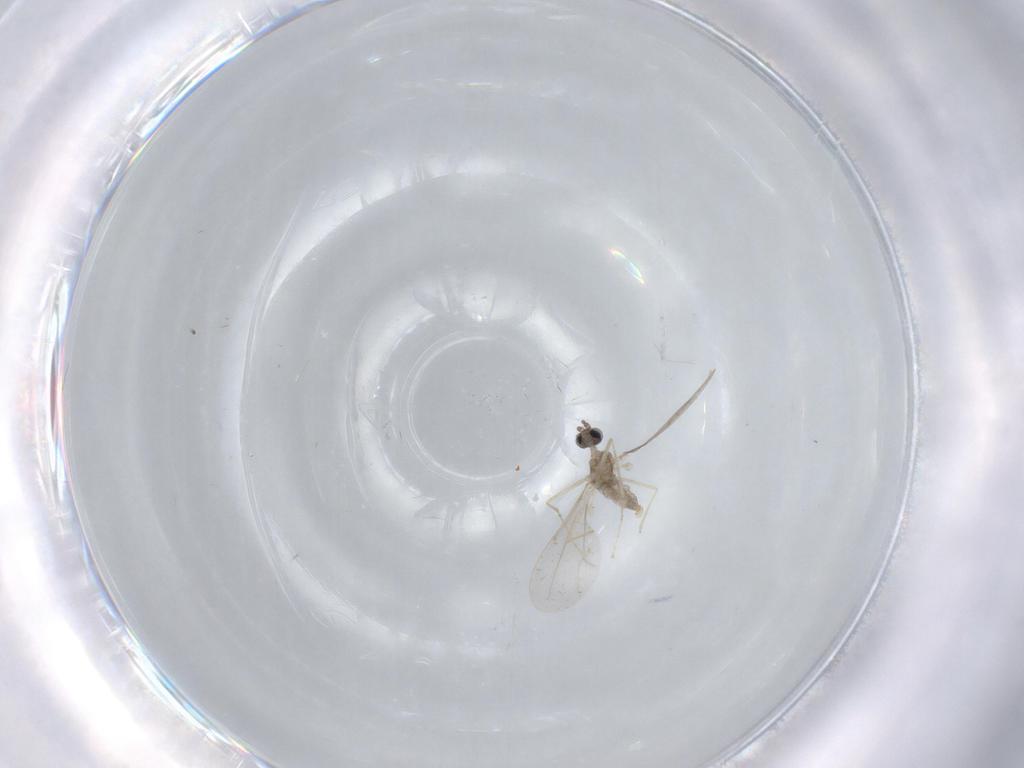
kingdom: Animalia
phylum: Arthropoda
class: Insecta
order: Diptera
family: Cecidomyiidae
